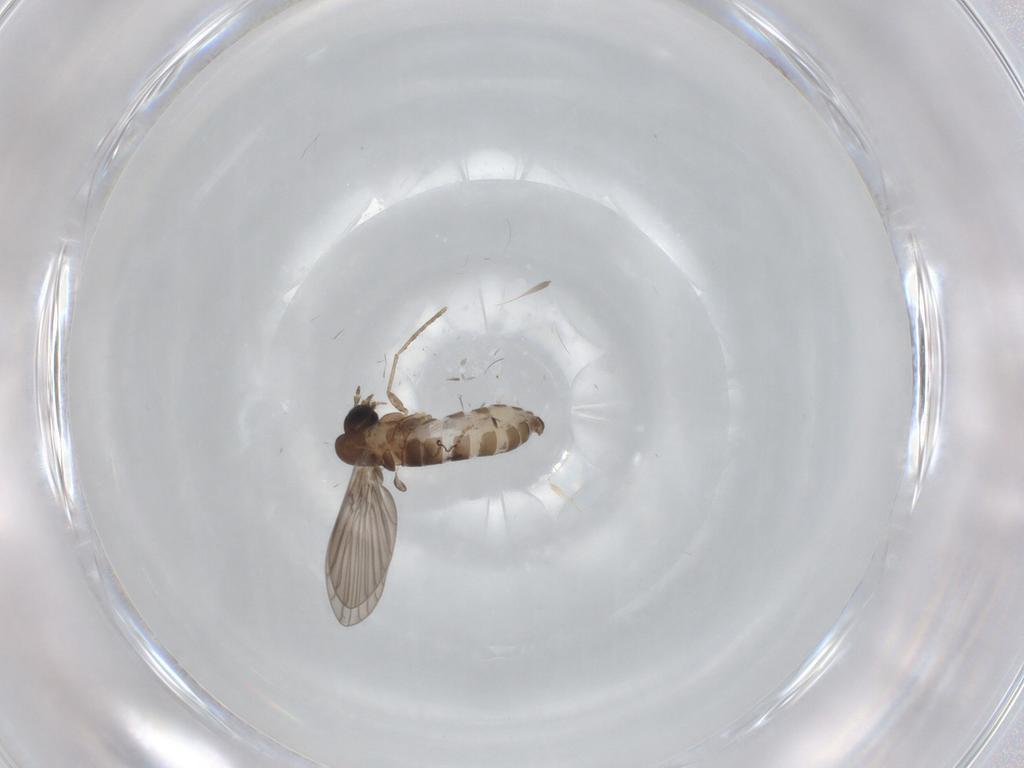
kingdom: Animalia
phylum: Arthropoda
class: Insecta
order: Diptera
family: Psychodidae
